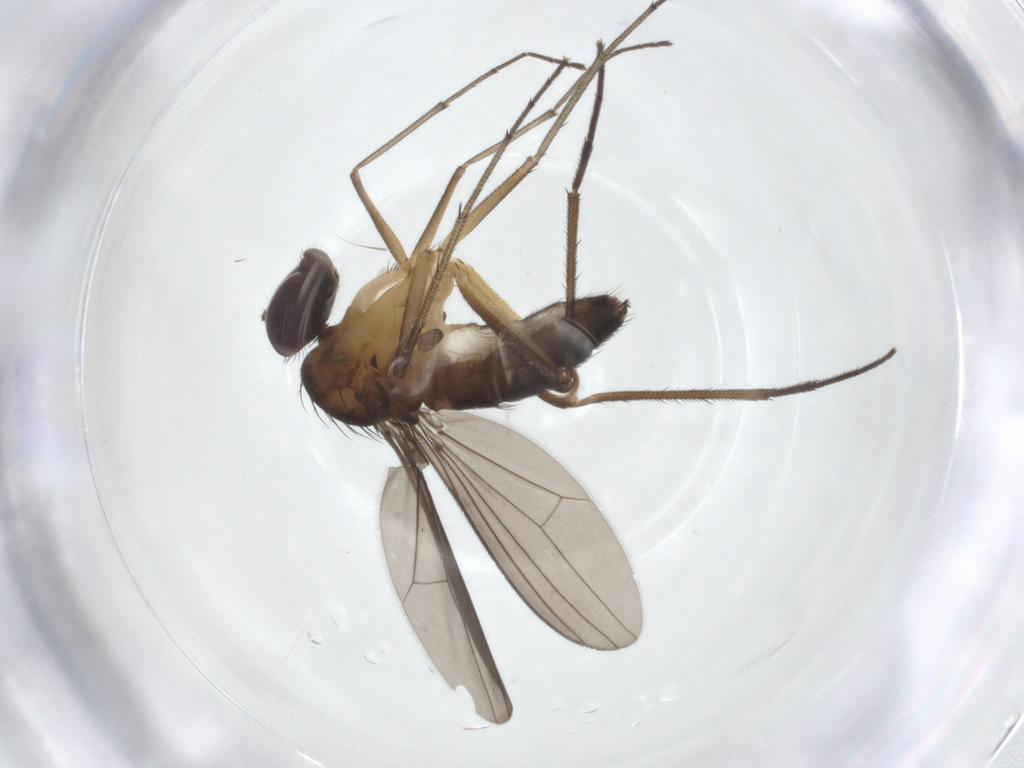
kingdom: Animalia
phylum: Arthropoda
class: Insecta
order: Diptera
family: Dolichopodidae
